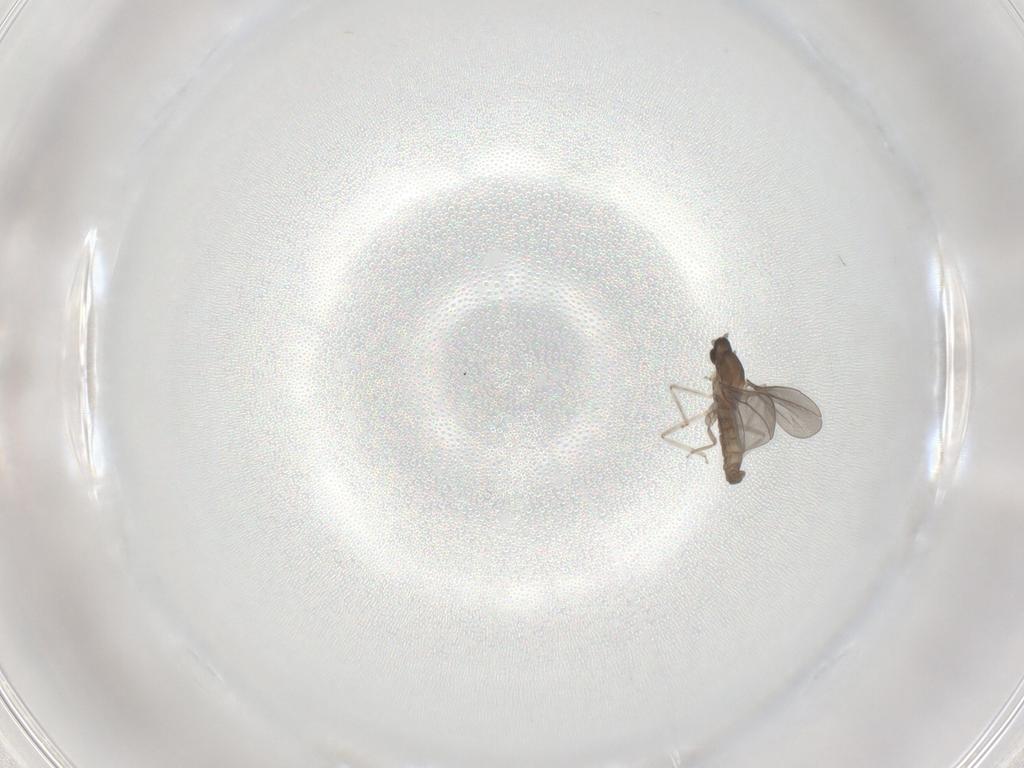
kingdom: Animalia
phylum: Arthropoda
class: Insecta
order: Diptera
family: Cecidomyiidae
